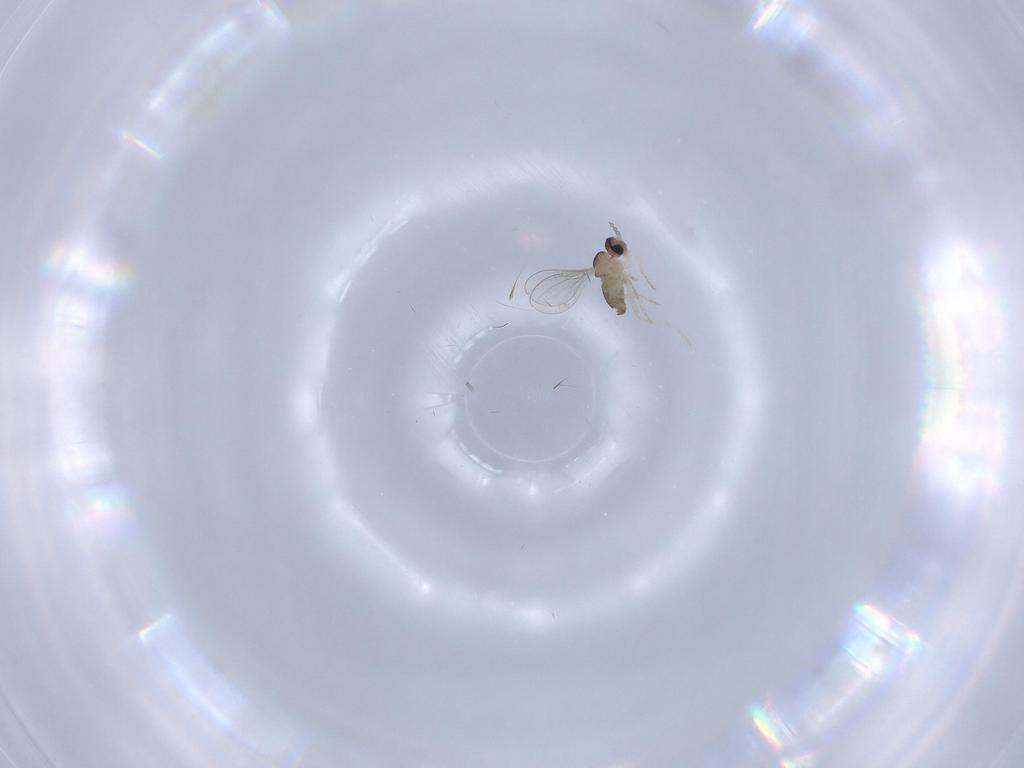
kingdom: Animalia
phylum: Arthropoda
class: Insecta
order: Diptera
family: Cecidomyiidae
